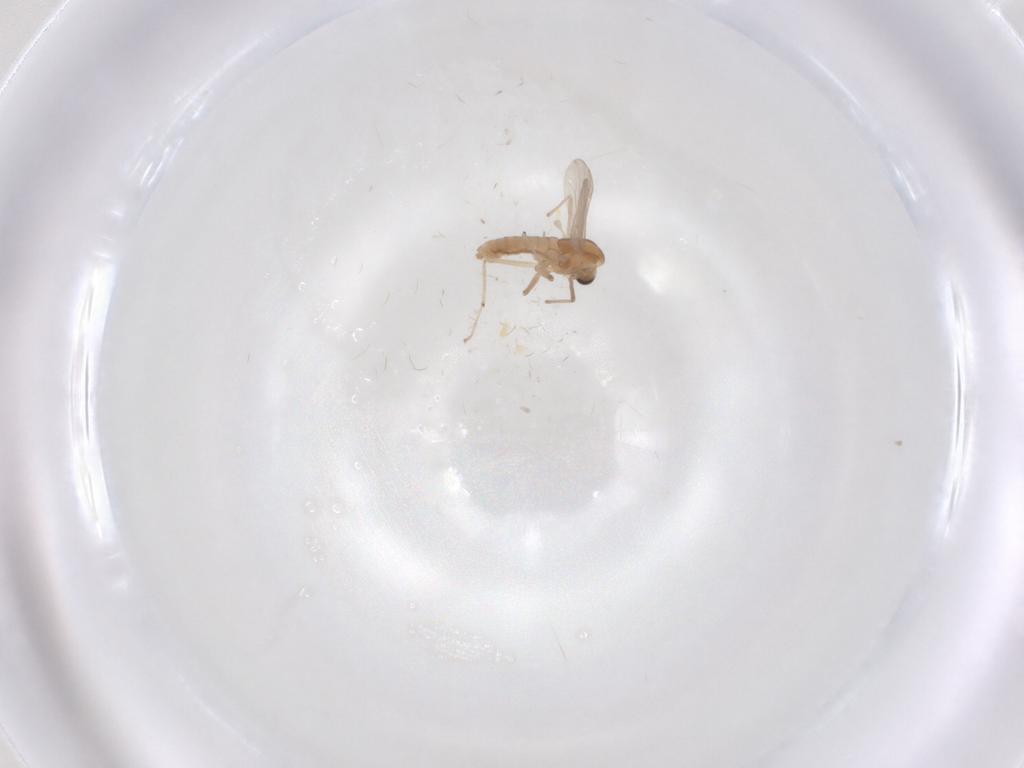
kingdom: Animalia
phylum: Arthropoda
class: Insecta
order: Diptera
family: Chironomidae
